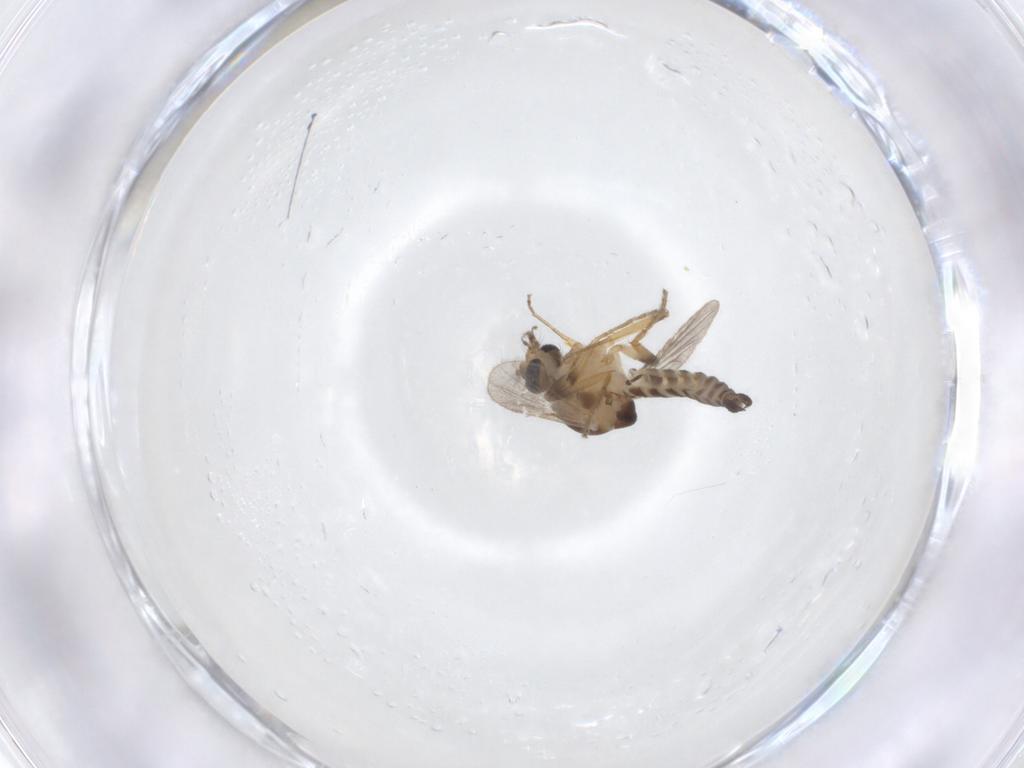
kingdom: Animalia
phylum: Arthropoda
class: Insecta
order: Diptera
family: Ceratopogonidae
